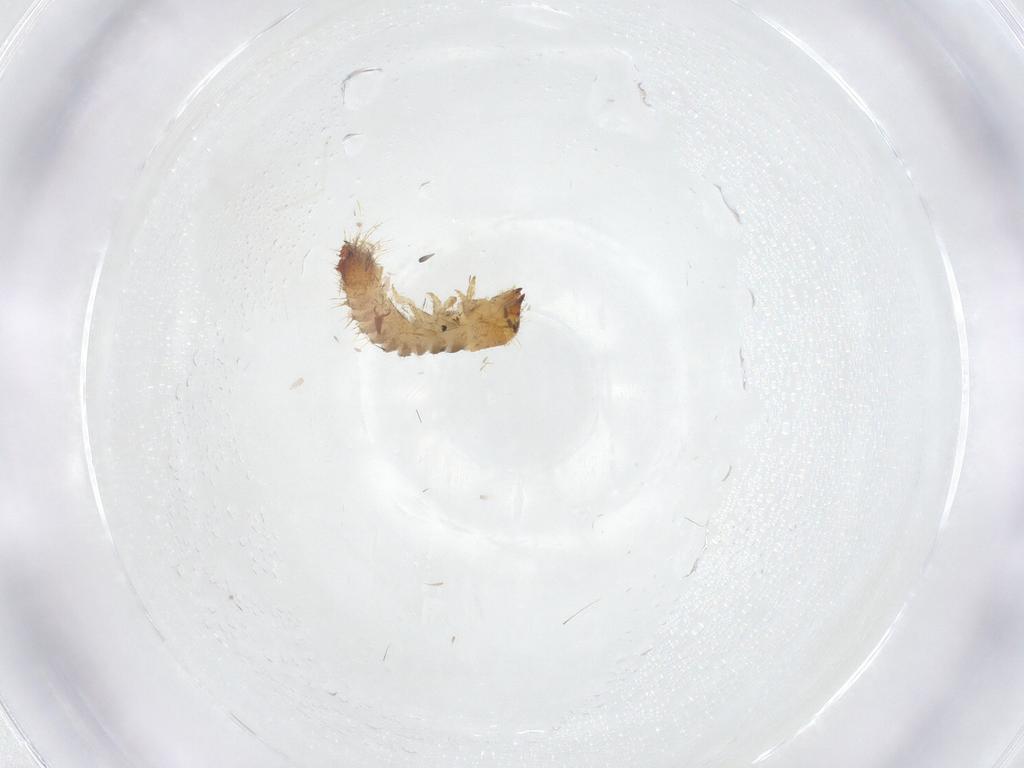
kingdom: Animalia
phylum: Arthropoda
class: Insecta
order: Coleoptera
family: Nitidulidae
